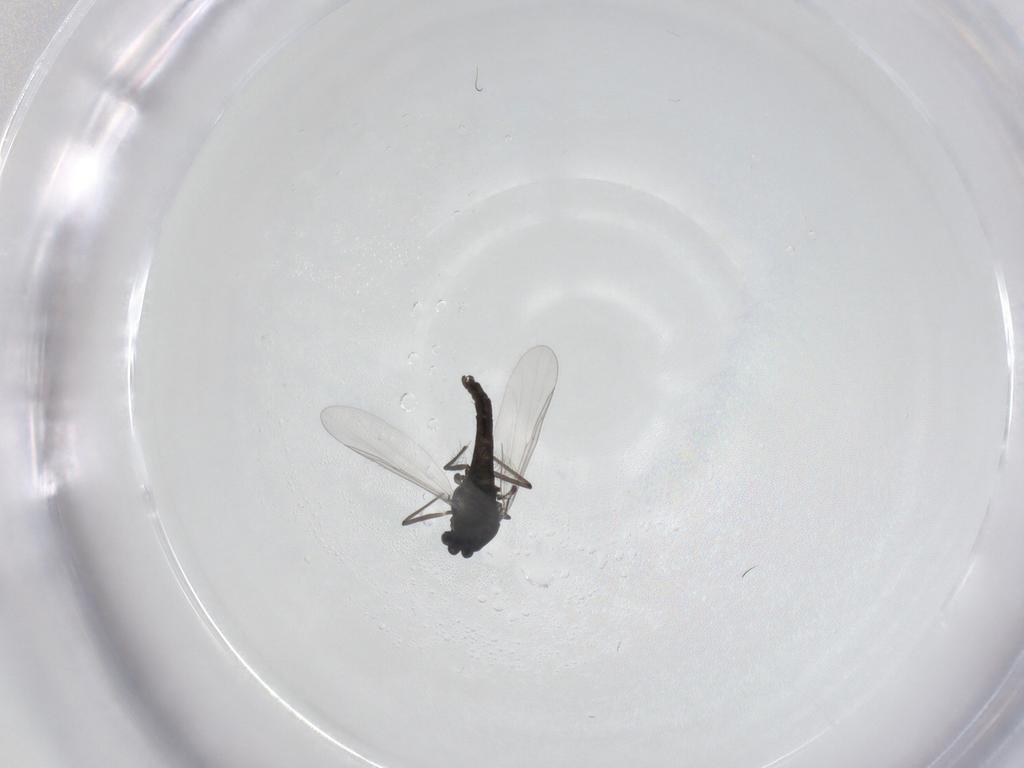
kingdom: Animalia
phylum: Arthropoda
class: Insecta
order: Diptera
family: Chironomidae
